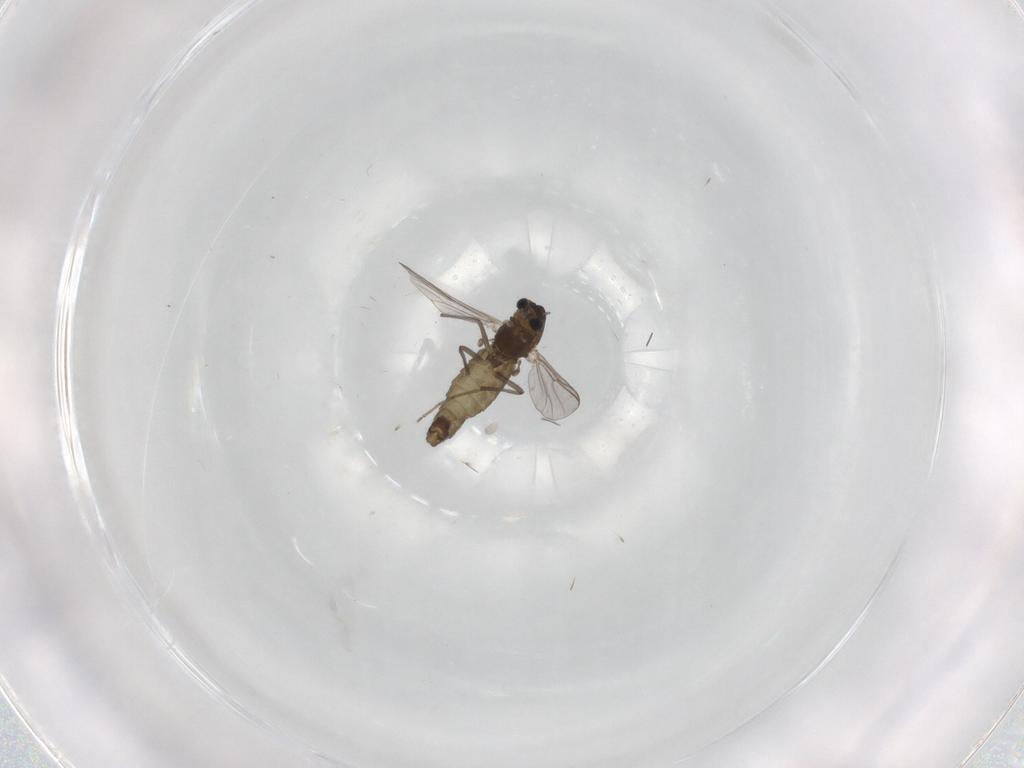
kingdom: Animalia
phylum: Arthropoda
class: Insecta
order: Diptera
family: Chironomidae
